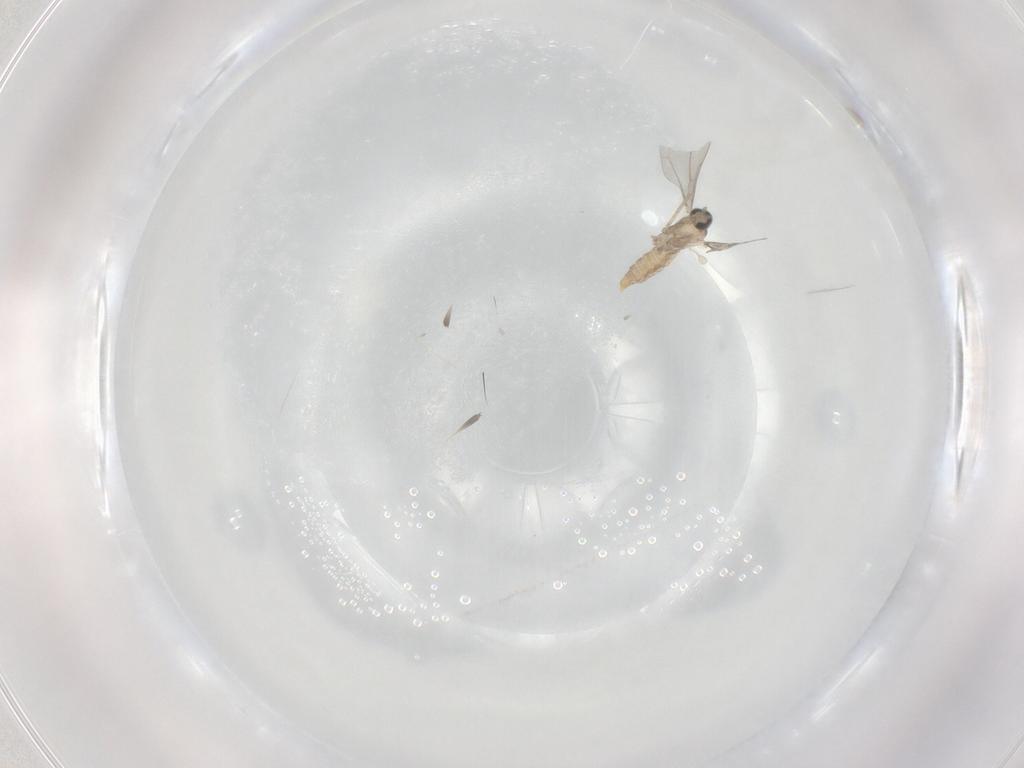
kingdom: Animalia
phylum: Arthropoda
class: Insecta
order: Diptera
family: Cecidomyiidae
